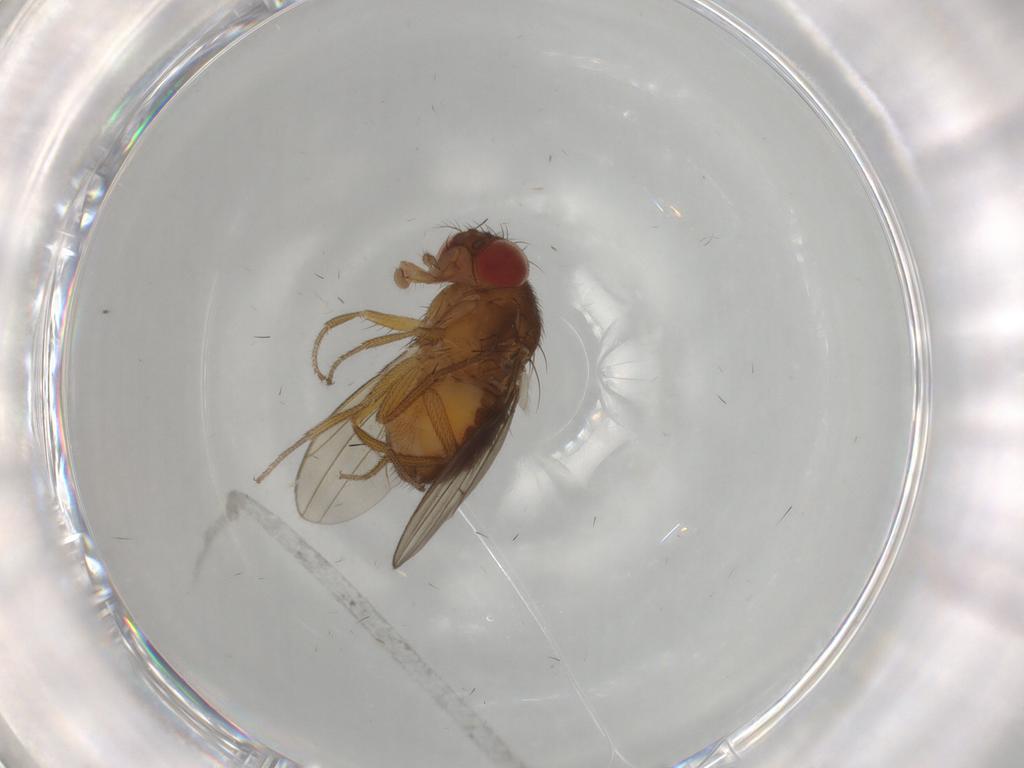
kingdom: Animalia
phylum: Arthropoda
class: Insecta
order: Diptera
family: Drosophilidae
